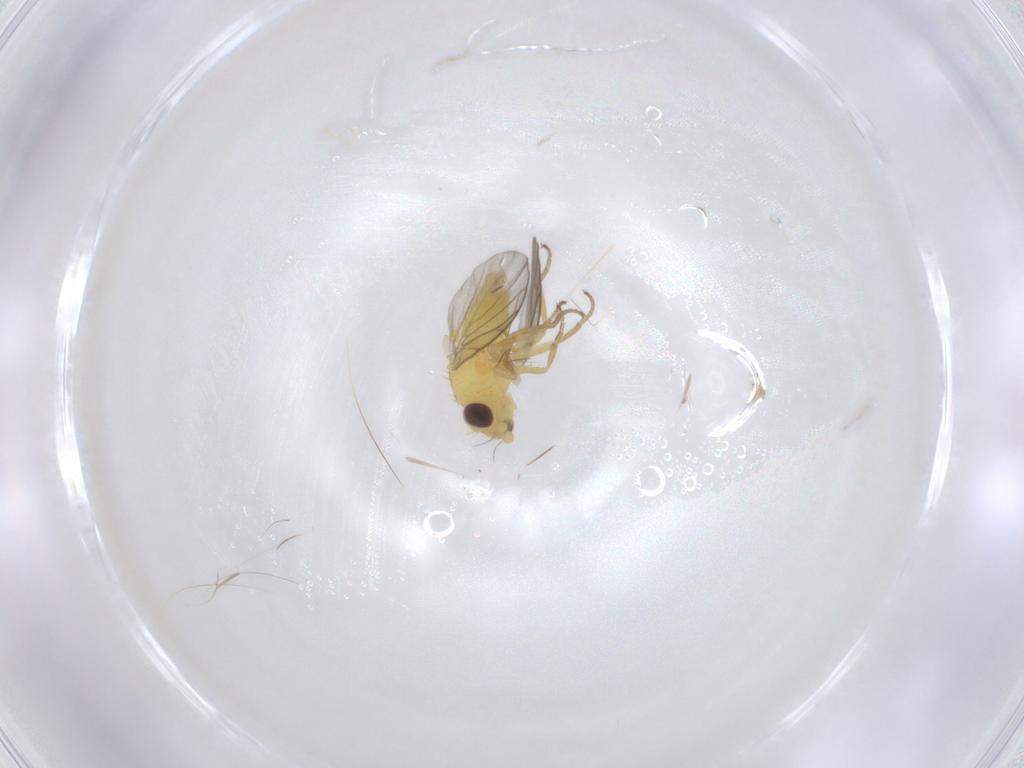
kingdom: Animalia
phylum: Arthropoda
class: Insecta
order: Diptera
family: Agromyzidae
